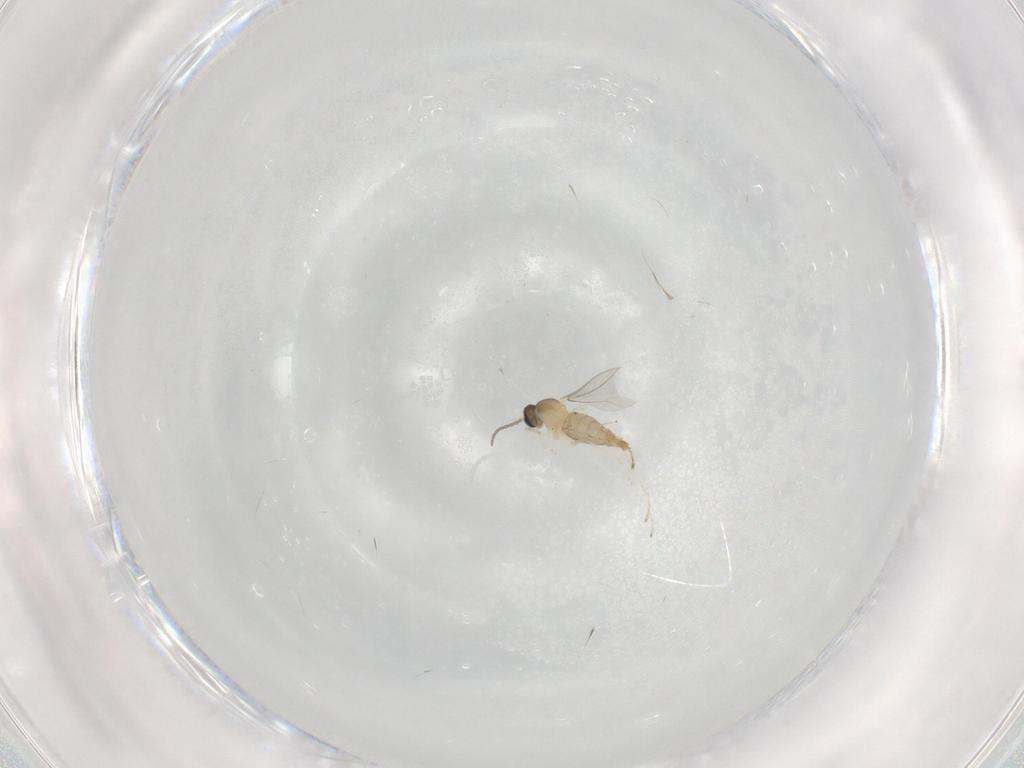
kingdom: Animalia
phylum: Arthropoda
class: Insecta
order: Diptera
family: Cecidomyiidae
